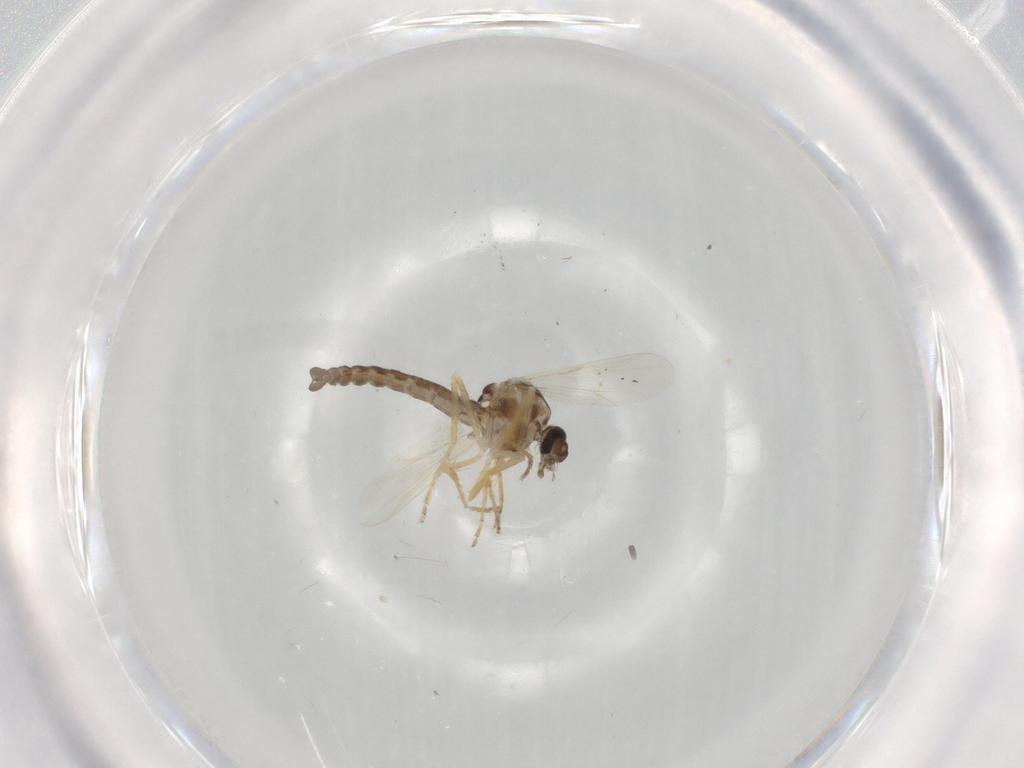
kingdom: Animalia
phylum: Arthropoda
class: Insecta
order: Diptera
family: Ceratopogonidae
